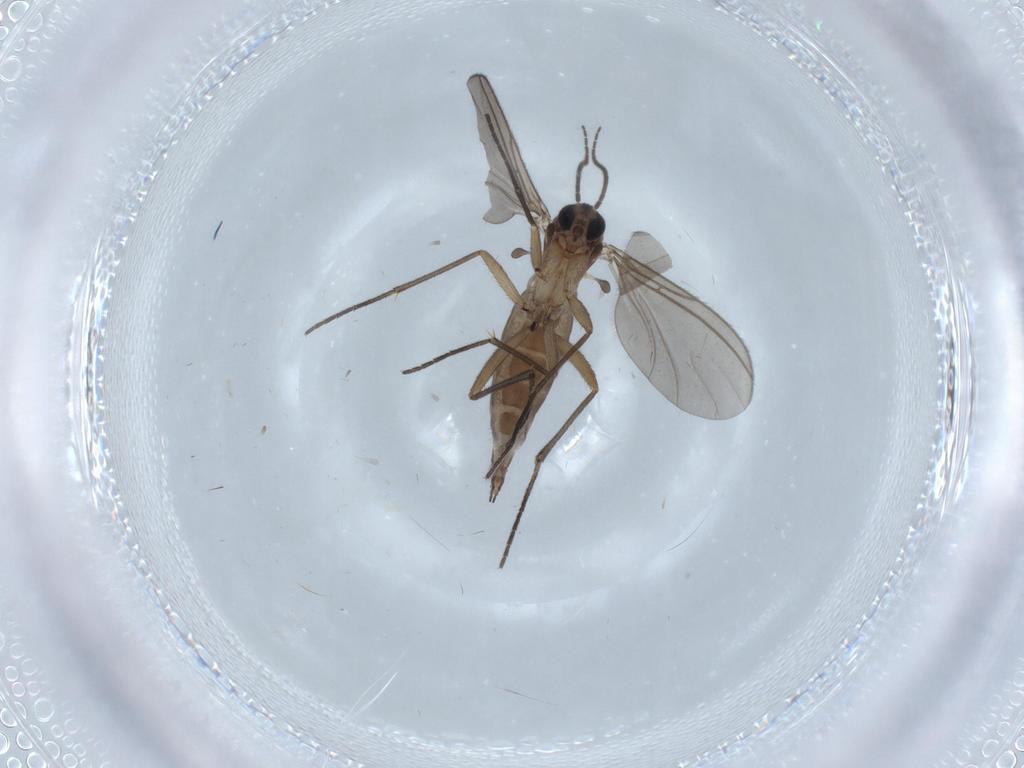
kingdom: Animalia
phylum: Arthropoda
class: Insecta
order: Diptera
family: Sciaridae
